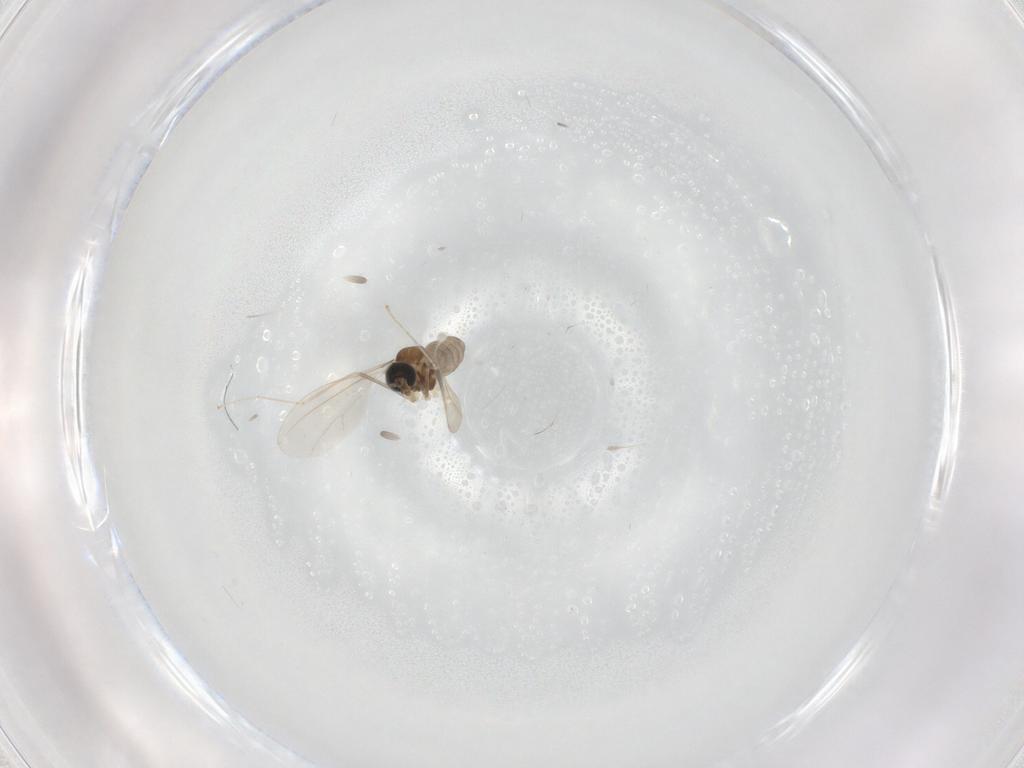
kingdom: Animalia
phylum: Arthropoda
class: Insecta
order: Diptera
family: Cecidomyiidae
